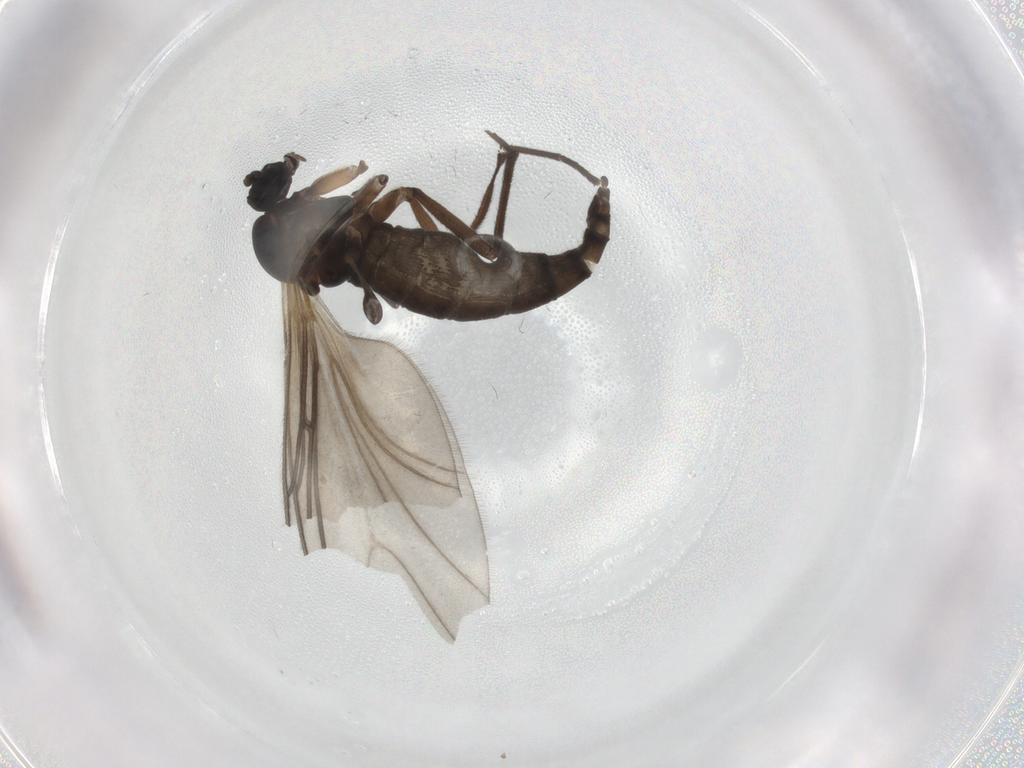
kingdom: Animalia
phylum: Arthropoda
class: Insecta
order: Diptera
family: Sciaridae
